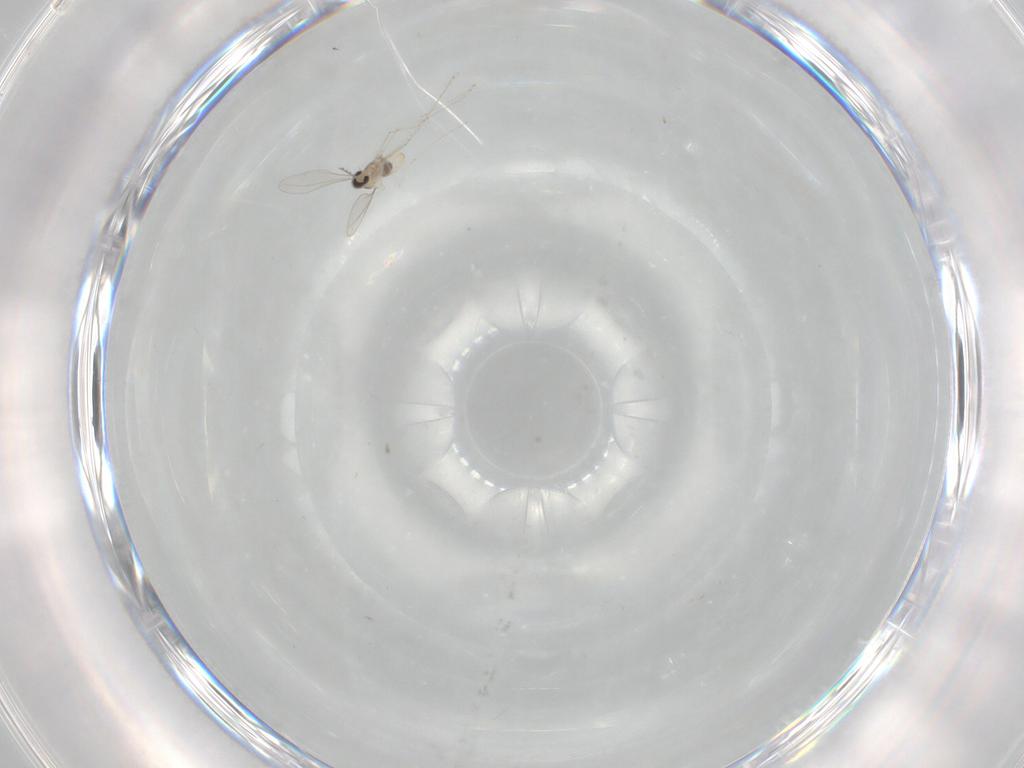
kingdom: Animalia
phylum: Arthropoda
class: Insecta
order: Diptera
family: Cecidomyiidae
